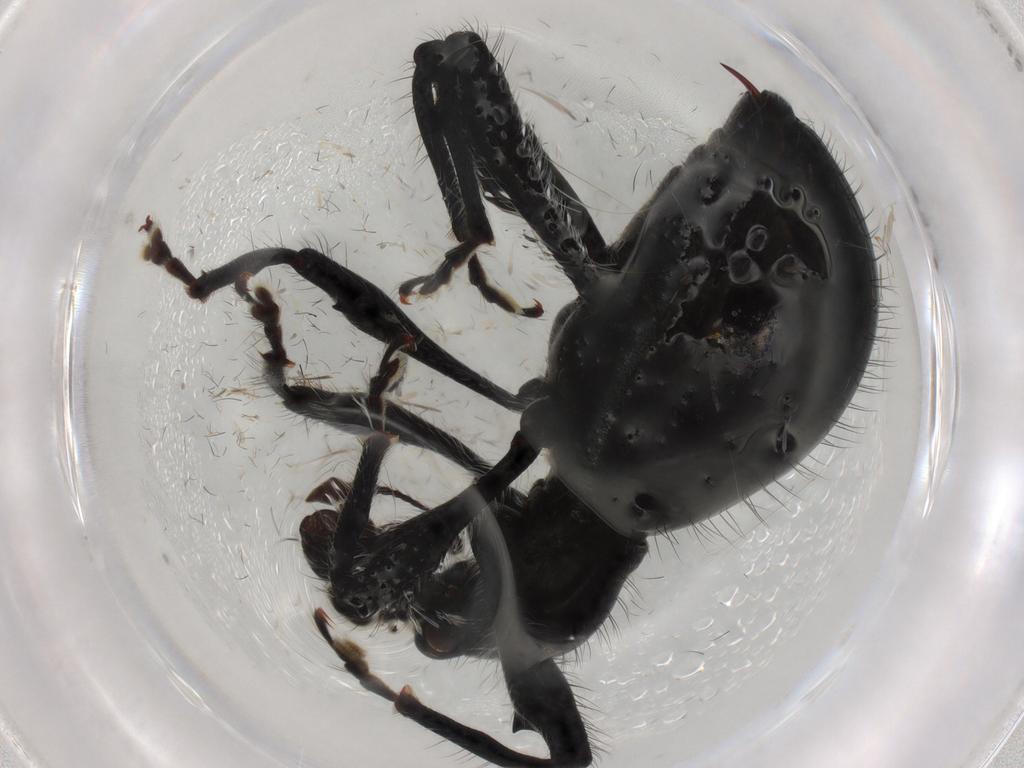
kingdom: Animalia
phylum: Arthropoda
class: Insecta
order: Coleoptera
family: Curculionidae
